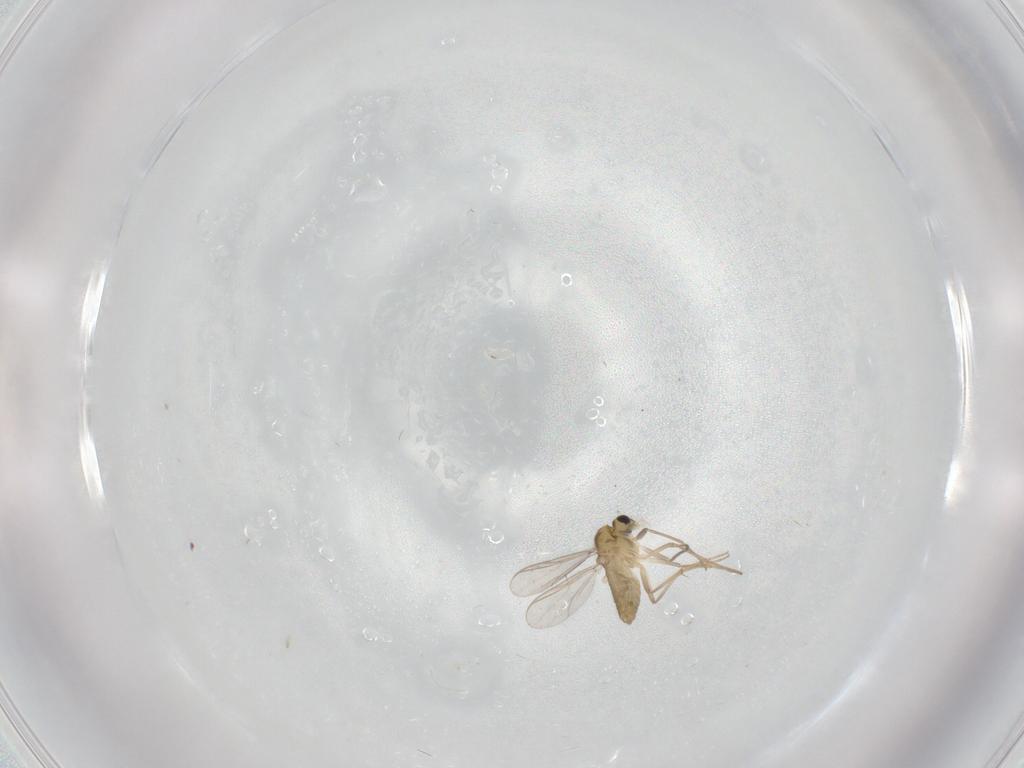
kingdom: Animalia
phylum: Arthropoda
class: Insecta
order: Diptera
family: Chironomidae
